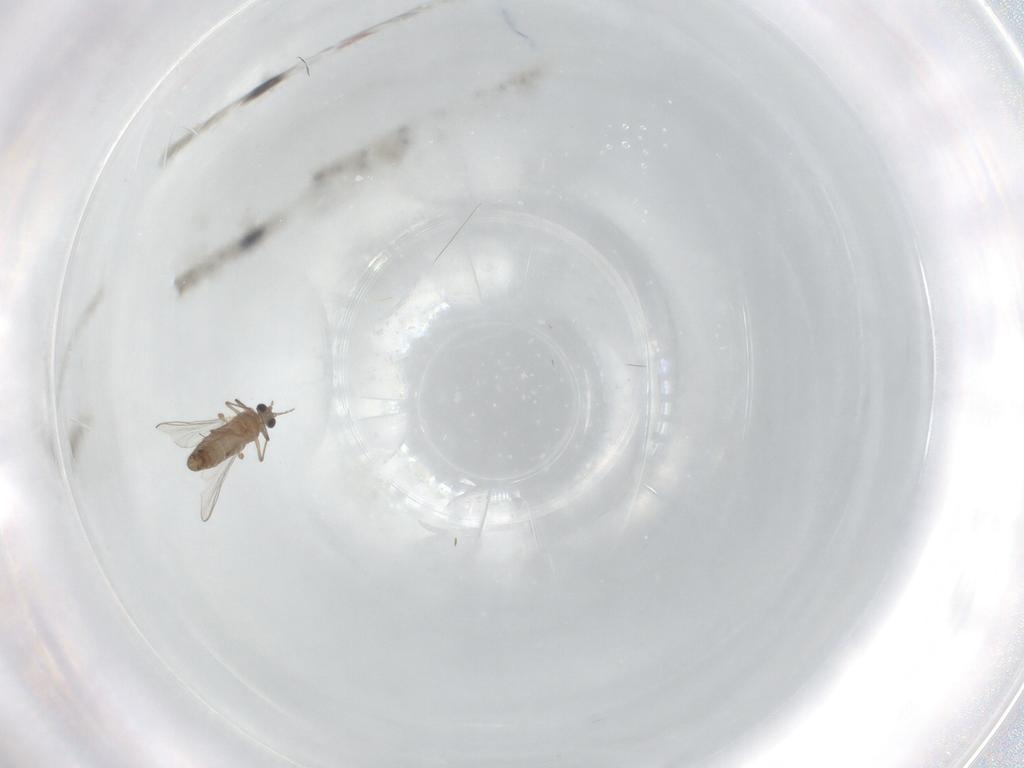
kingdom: Animalia
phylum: Arthropoda
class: Insecta
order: Diptera
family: Chironomidae
